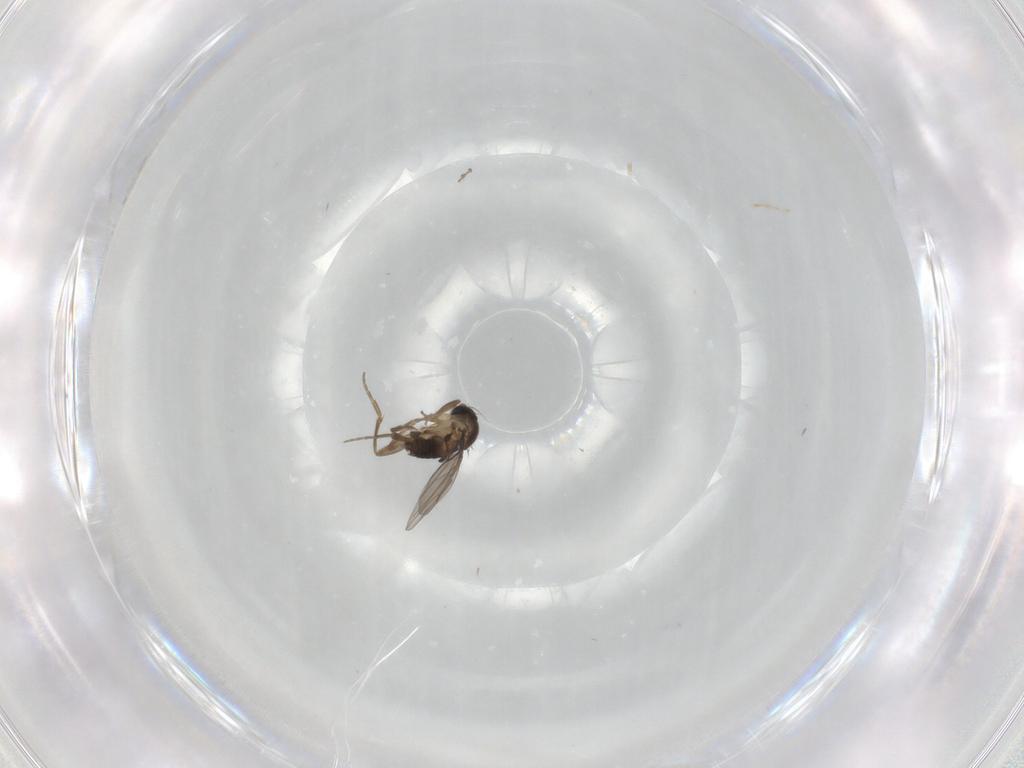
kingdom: Animalia
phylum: Arthropoda
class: Insecta
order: Diptera
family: Phoridae
